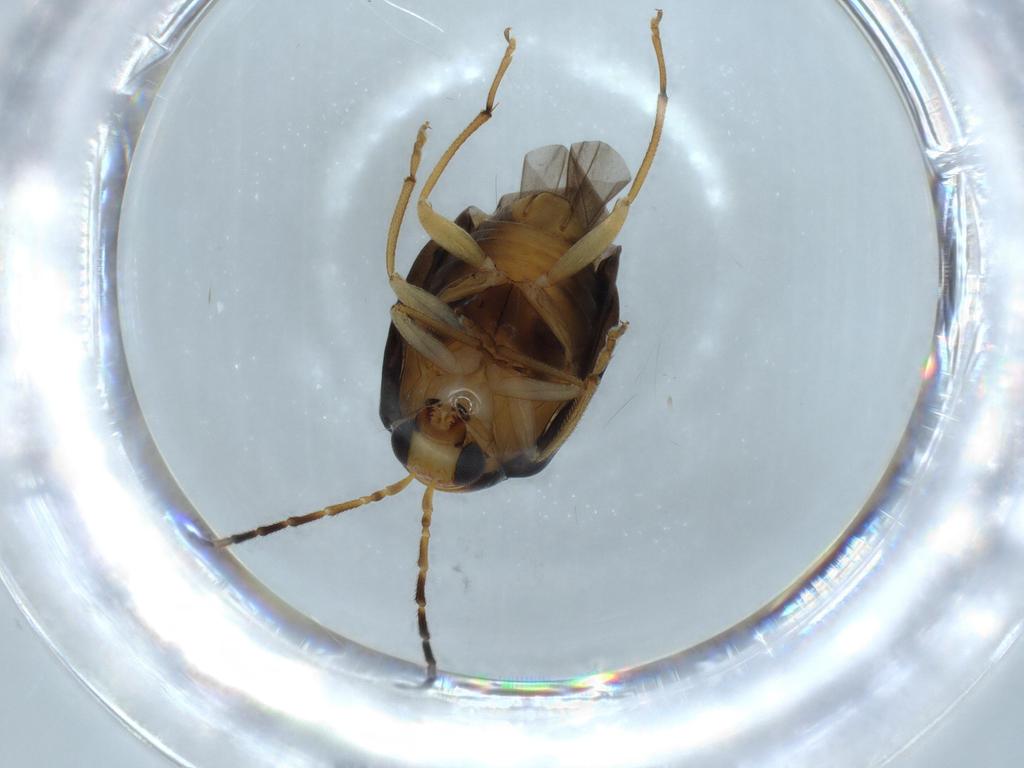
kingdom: Animalia
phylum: Arthropoda
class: Insecta
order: Coleoptera
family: Chrysomelidae
